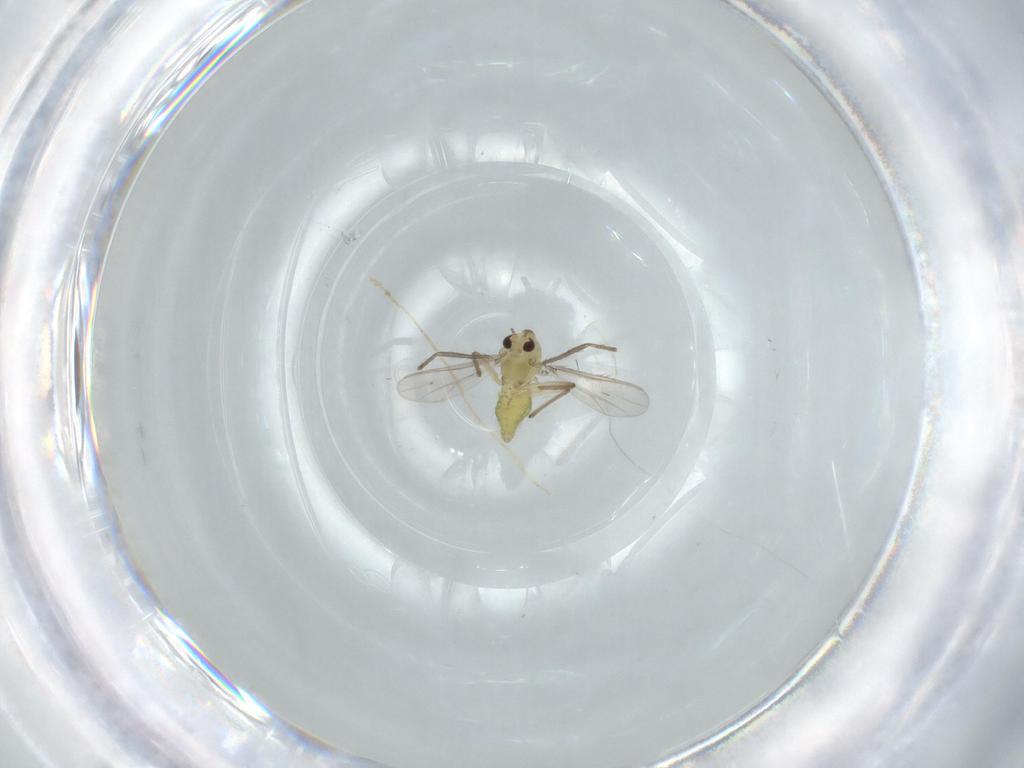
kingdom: Animalia
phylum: Arthropoda
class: Insecta
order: Diptera
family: Chironomidae
